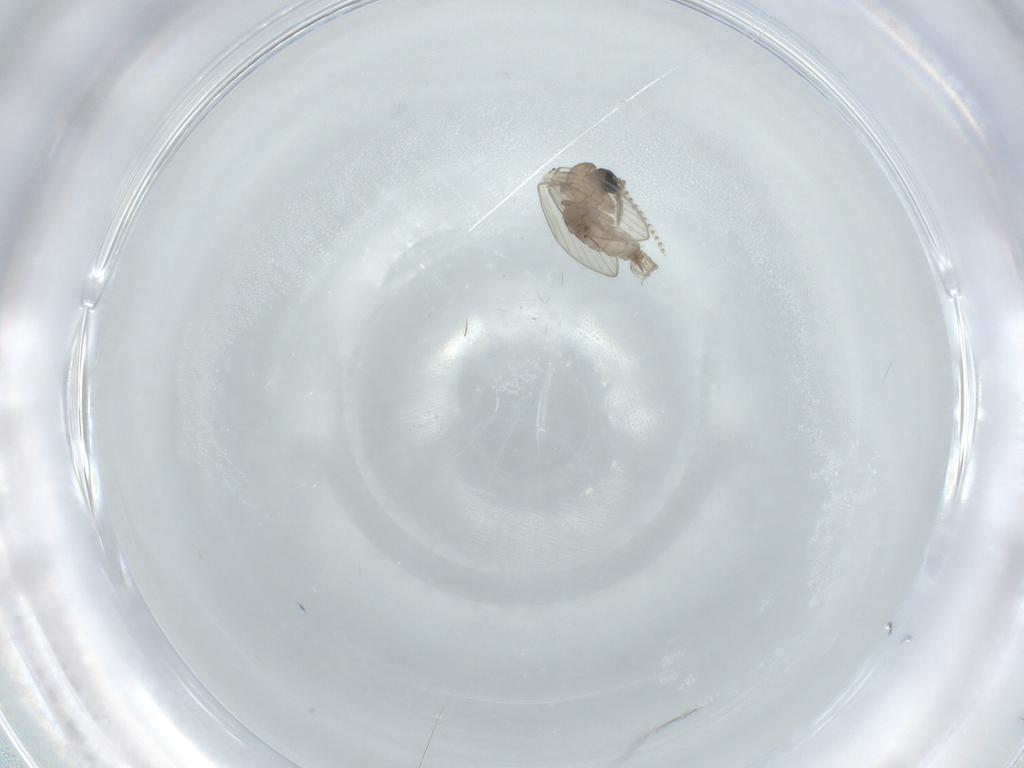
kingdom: Animalia
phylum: Arthropoda
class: Insecta
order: Diptera
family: Psychodidae
